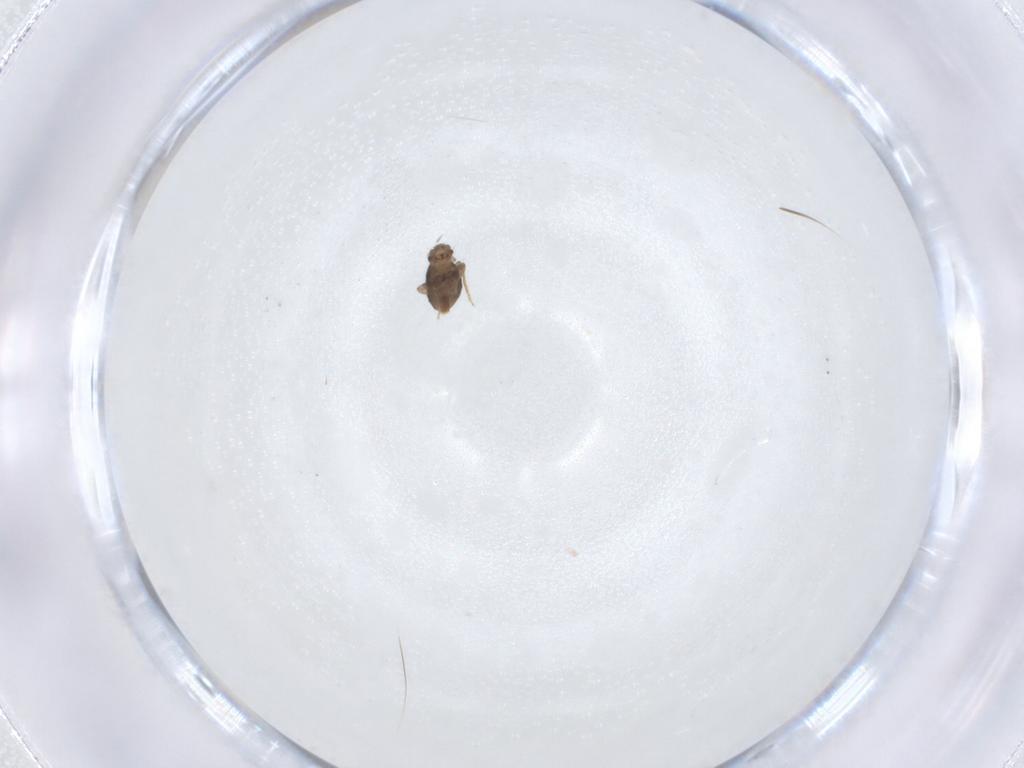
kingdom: Animalia
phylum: Arthropoda
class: Insecta
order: Diptera
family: Phoridae
